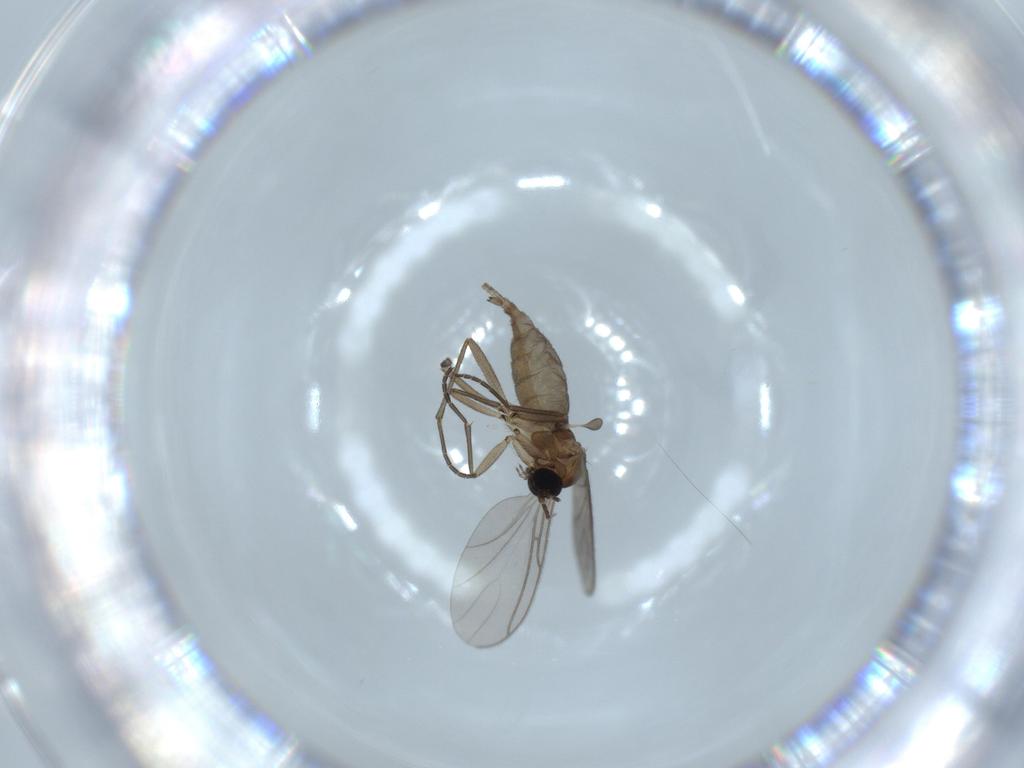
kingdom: Animalia
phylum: Arthropoda
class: Insecta
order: Diptera
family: Sciaridae
